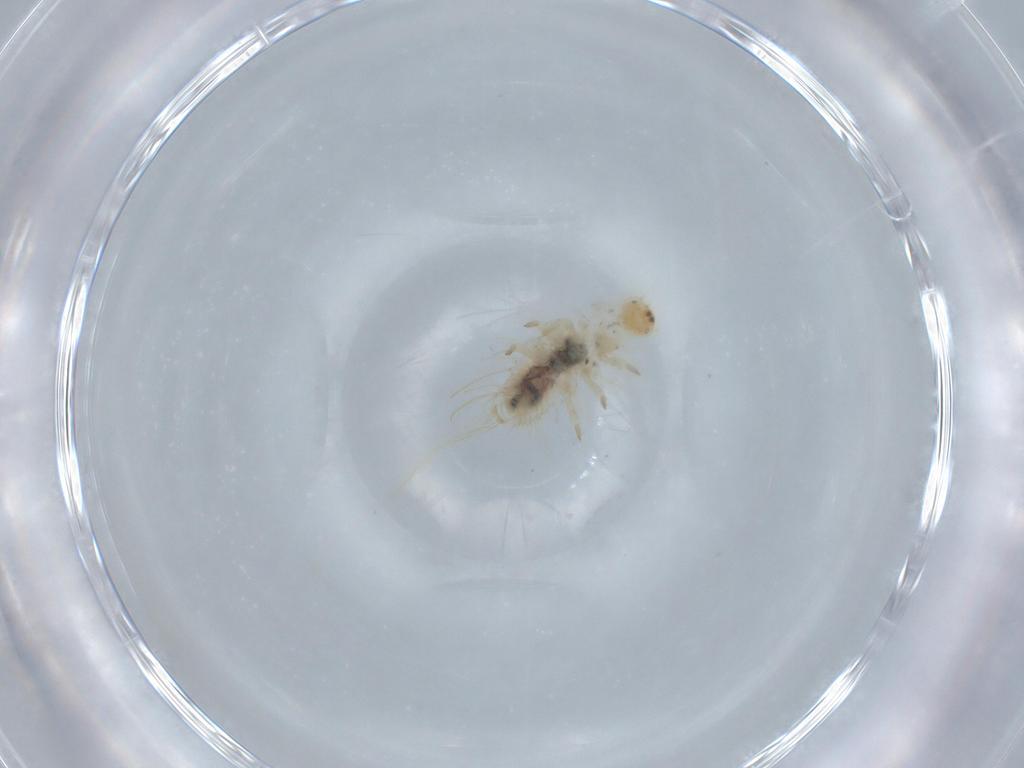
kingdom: Animalia
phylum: Arthropoda
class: Insecta
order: Coleoptera
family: Dermestidae
